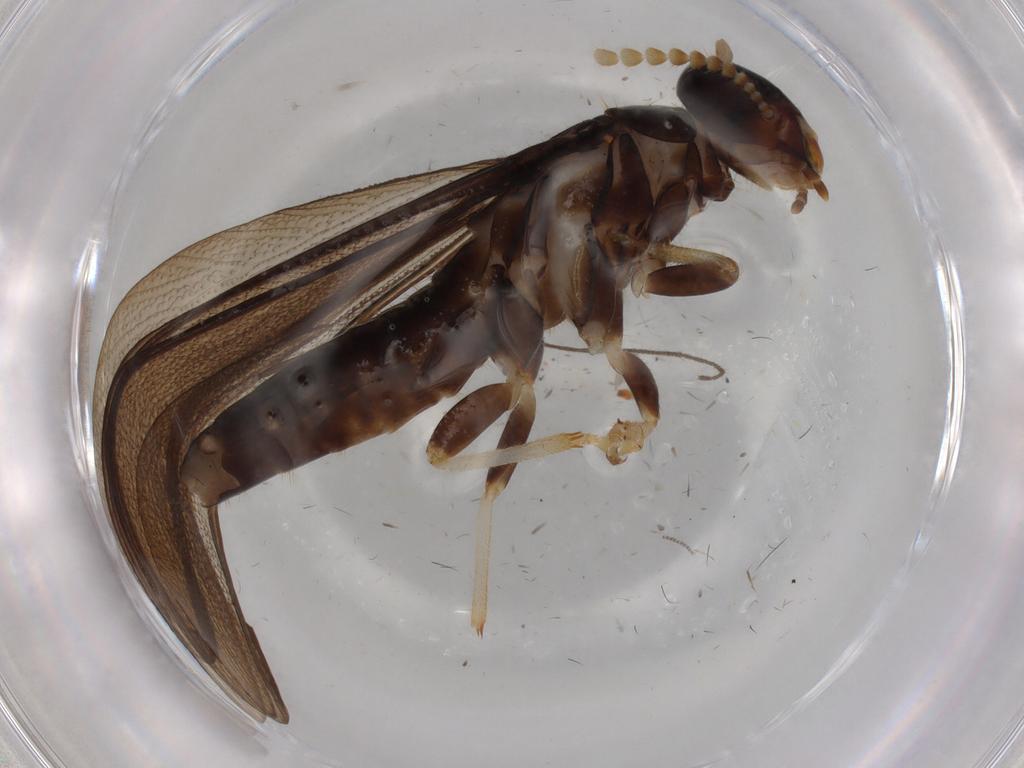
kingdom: Animalia
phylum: Arthropoda
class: Insecta
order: Blattodea
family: Kalotermitidae
